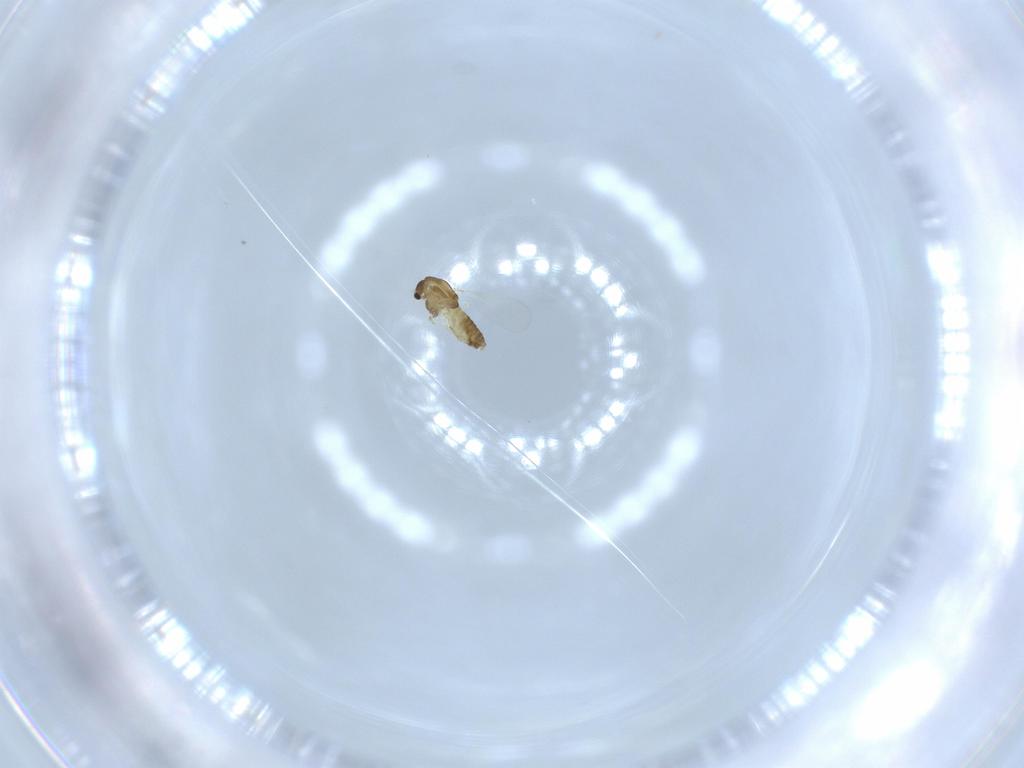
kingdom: Animalia
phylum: Arthropoda
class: Insecta
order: Diptera
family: Chironomidae
